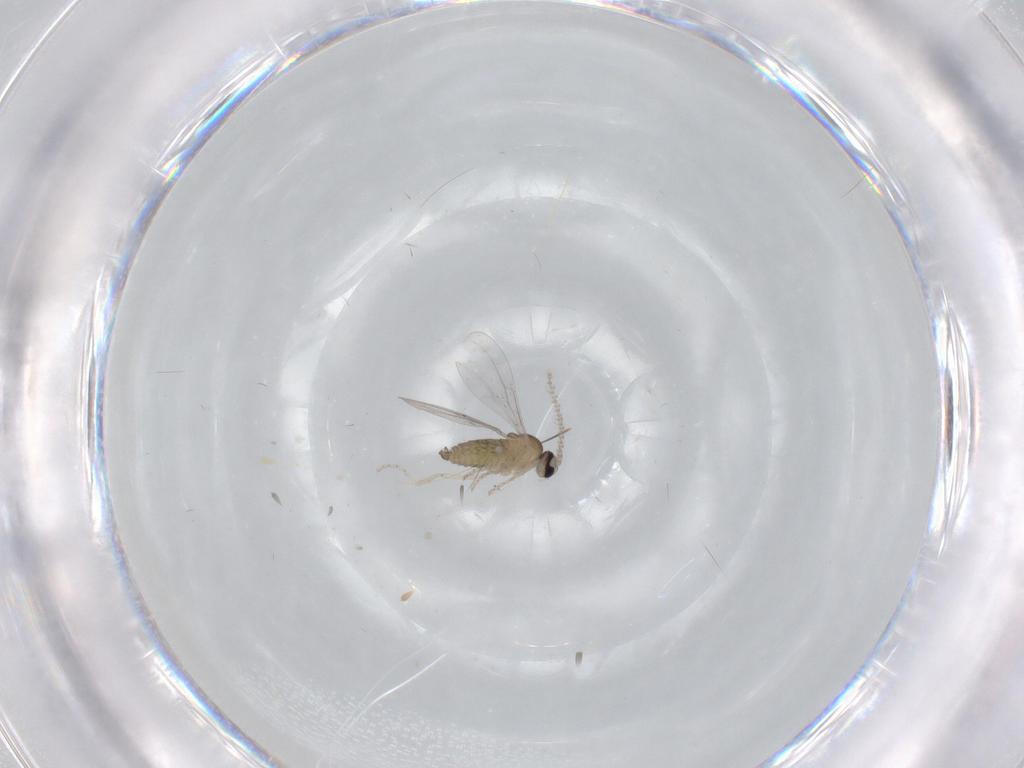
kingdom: Animalia
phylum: Arthropoda
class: Insecta
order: Diptera
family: Cecidomyiidae
